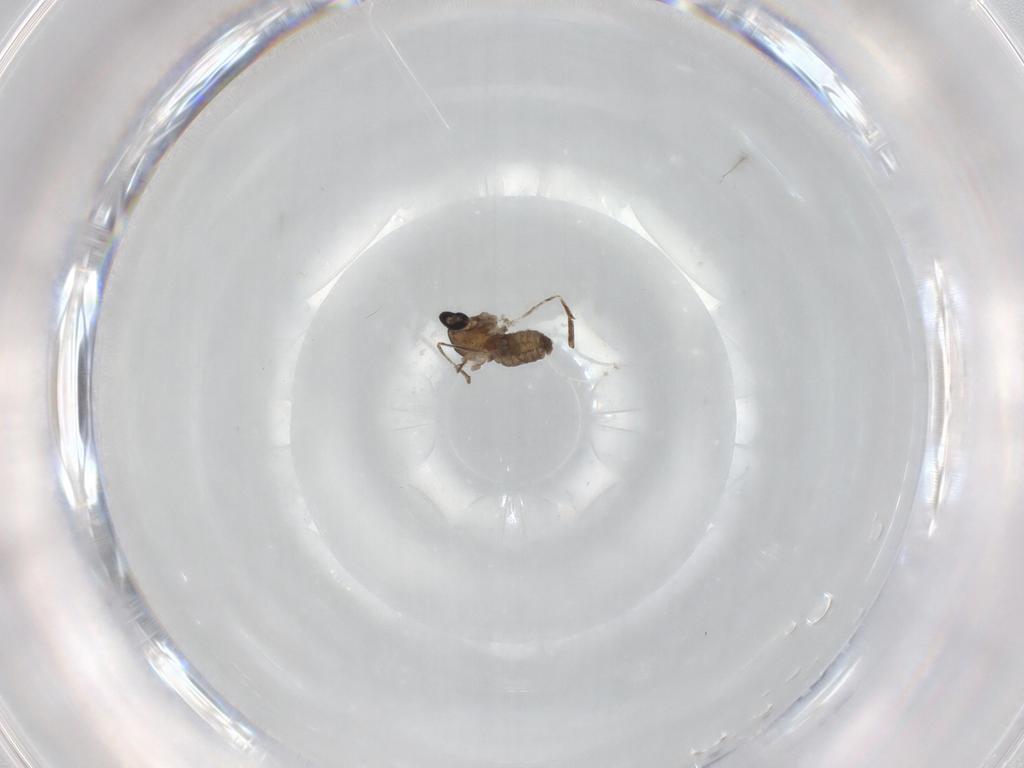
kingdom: Animalia
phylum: Arthropoda
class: Insecta
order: Diptera
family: Cecidomyiidae
